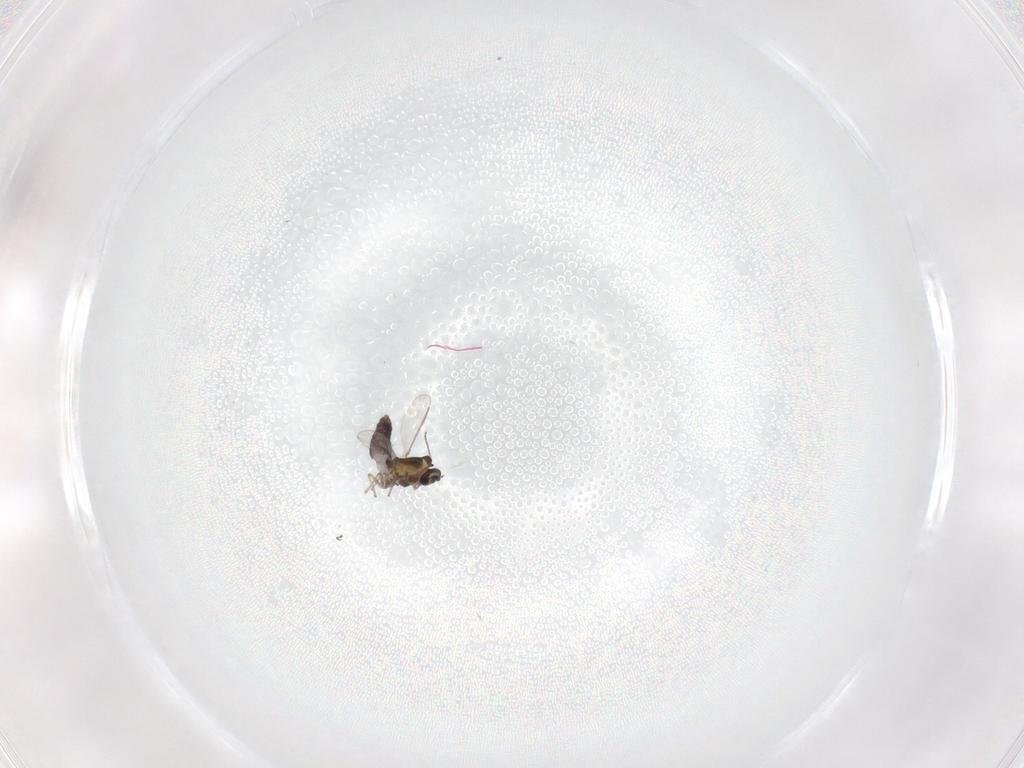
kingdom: Animalia
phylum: Arthropoda
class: Insecta
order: Diptera
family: Chironomidae
